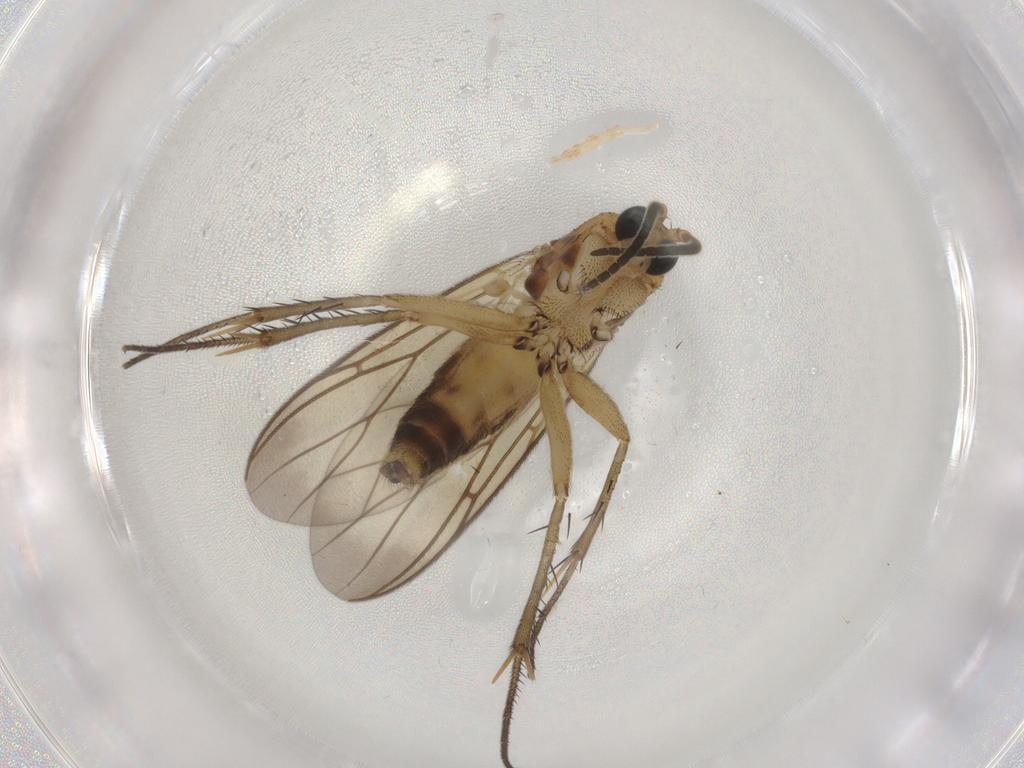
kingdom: Animalia
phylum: Arthropoda
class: Insecta
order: Diptera
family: Mycetophilidae
